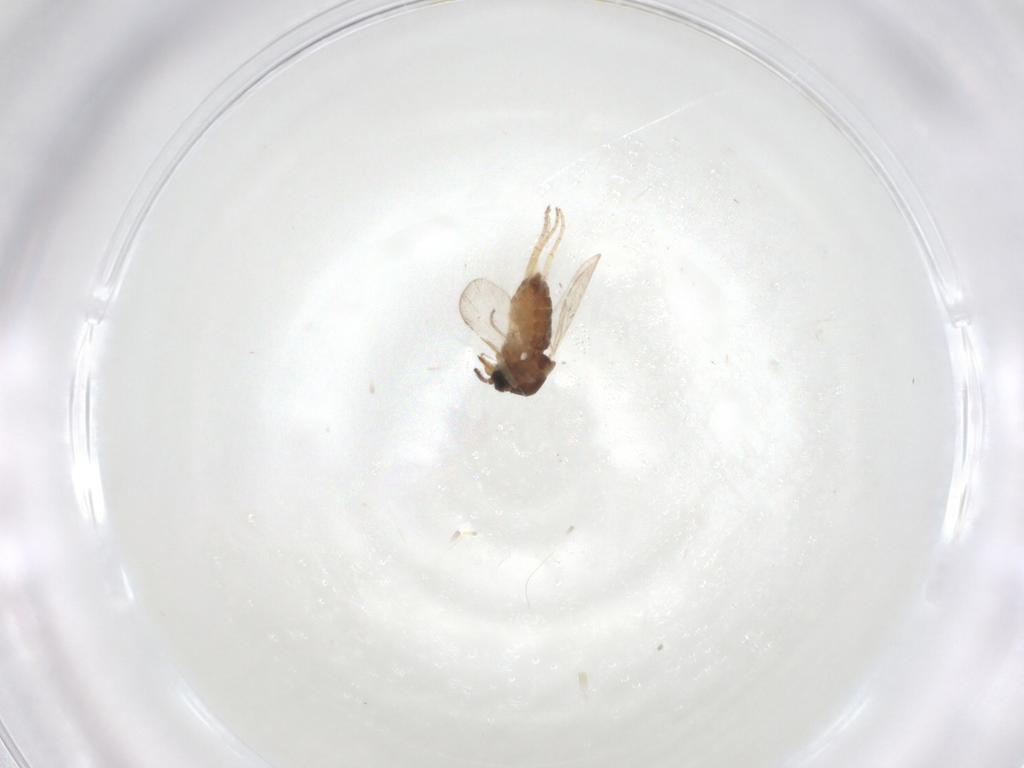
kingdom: Animalia
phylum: Arthropoda
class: Insecta
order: Diptera
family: Ceratopogonidae
